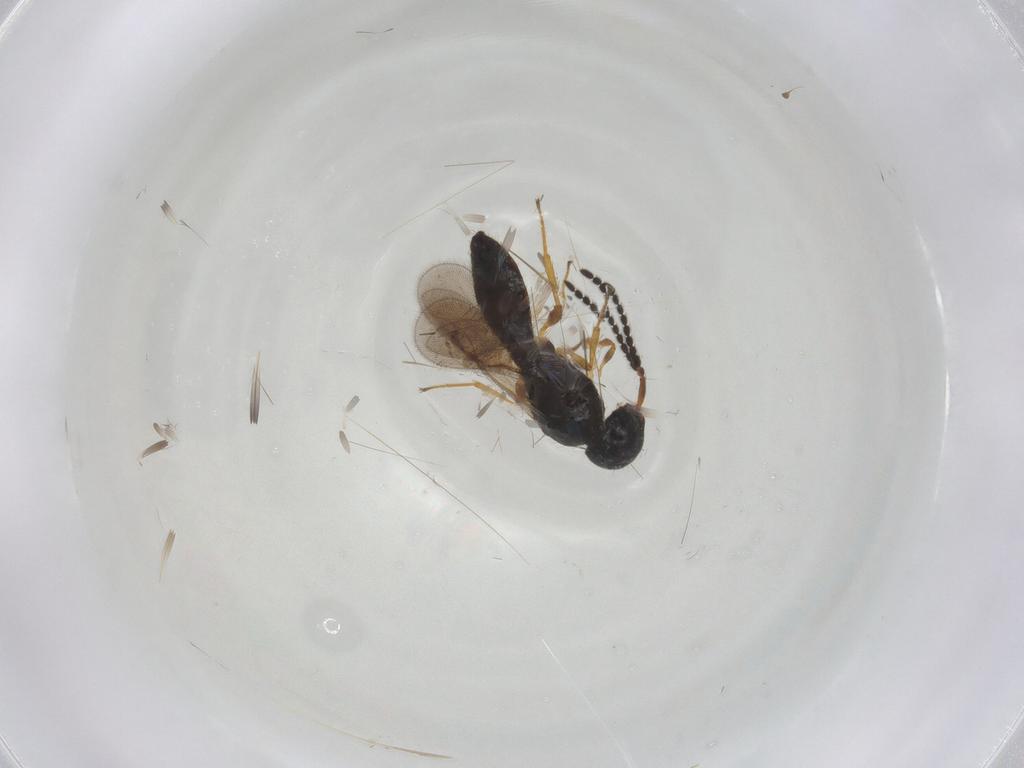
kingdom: Animalia
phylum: Arthropoda
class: Insecta
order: Hymenoptera
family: Scelionidae
